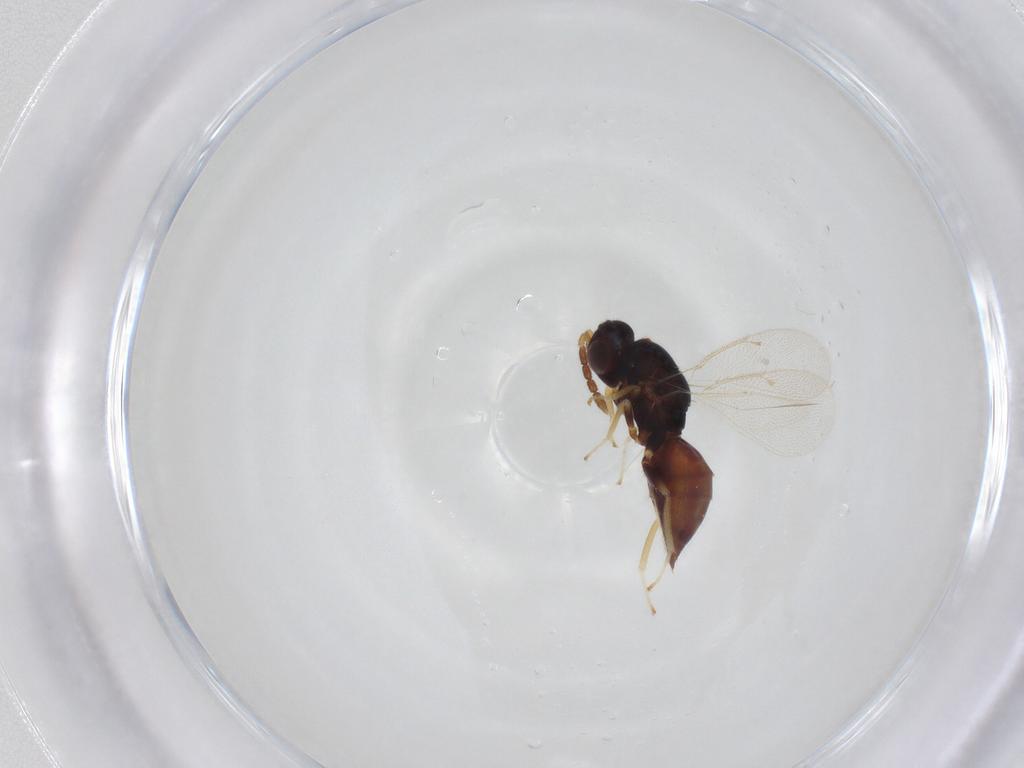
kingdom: Animalia
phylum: Arthropoda
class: Insecta
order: Hymenoptera
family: Eulophidae
